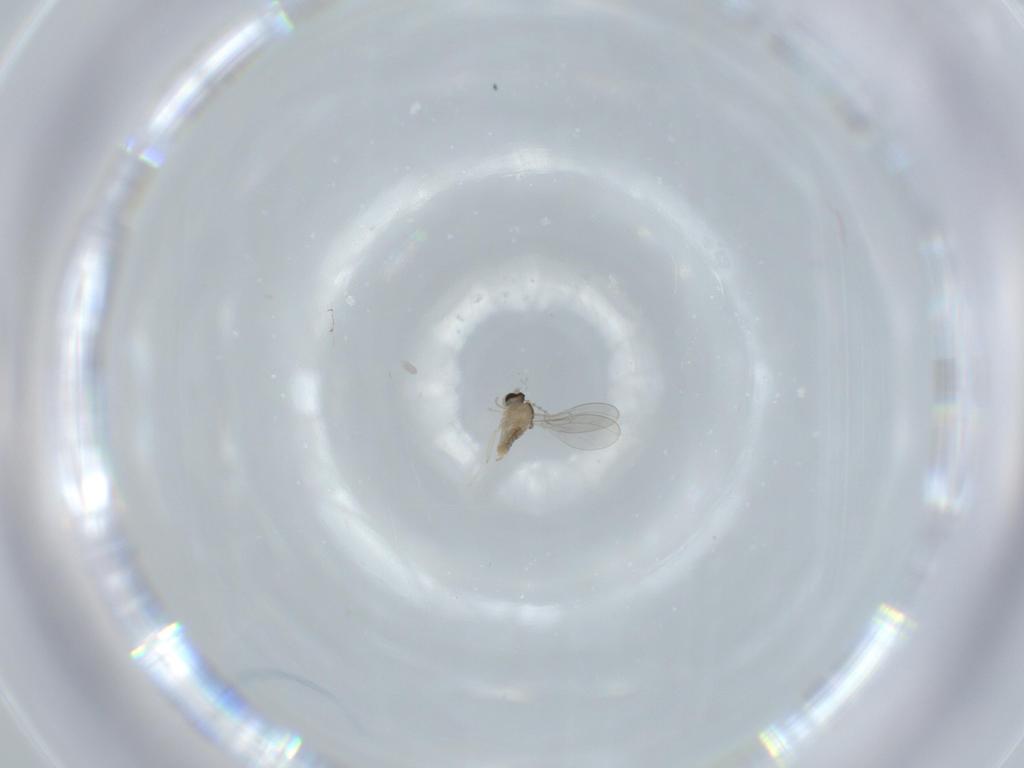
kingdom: Animalia
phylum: Arthropoda
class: Insecta
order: Diptera
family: Cecidomyiidae
